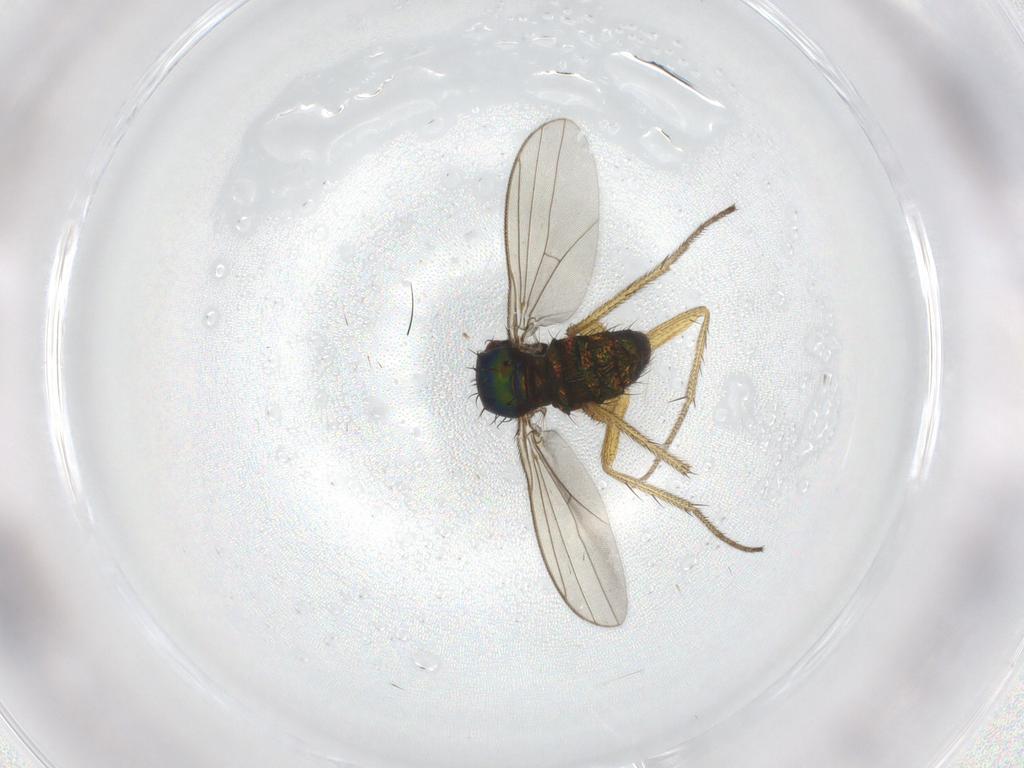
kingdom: Animalia
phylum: Arthropoda
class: Insecta
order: Diptera
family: Dolichopodidae
